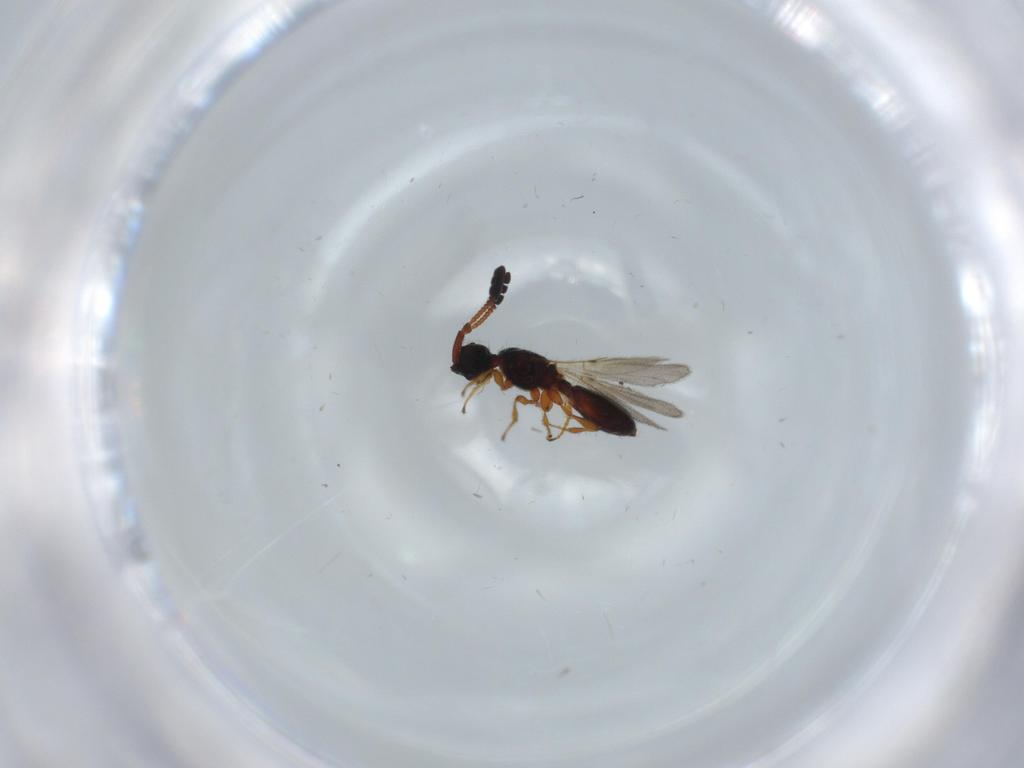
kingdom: Animalia
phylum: Arthropoda
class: Insecta
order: Hymenoptera
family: Diapriidae
